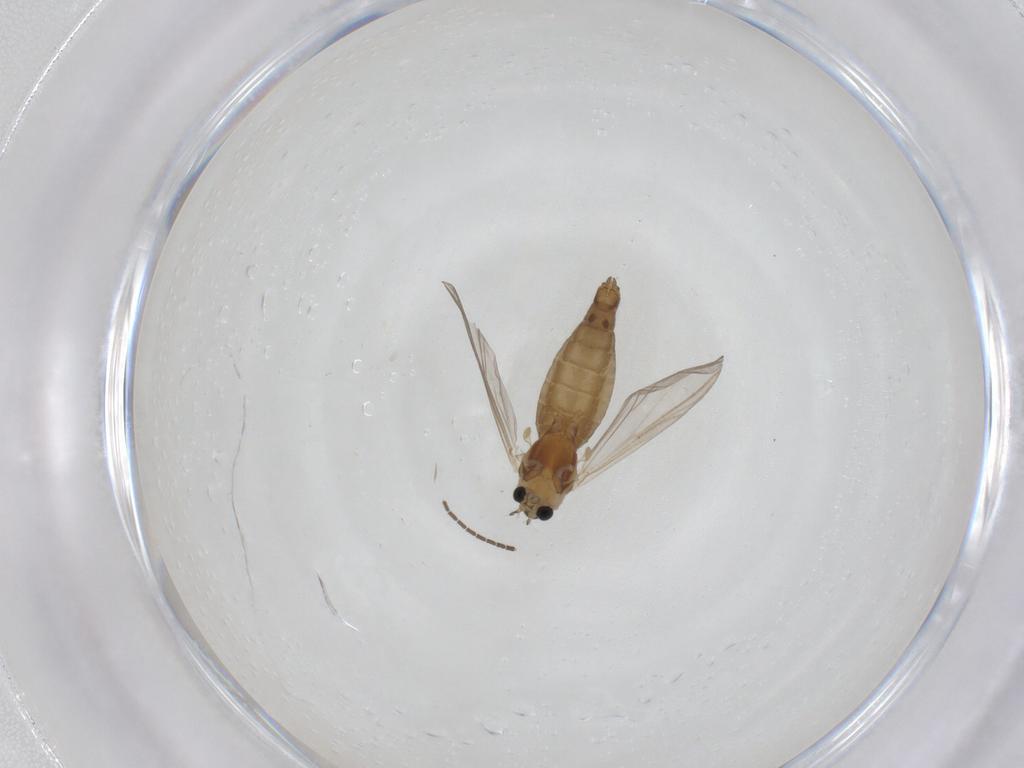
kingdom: Animalia
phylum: Arthropoda
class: Insecta
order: Diptera
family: Chironomidae
